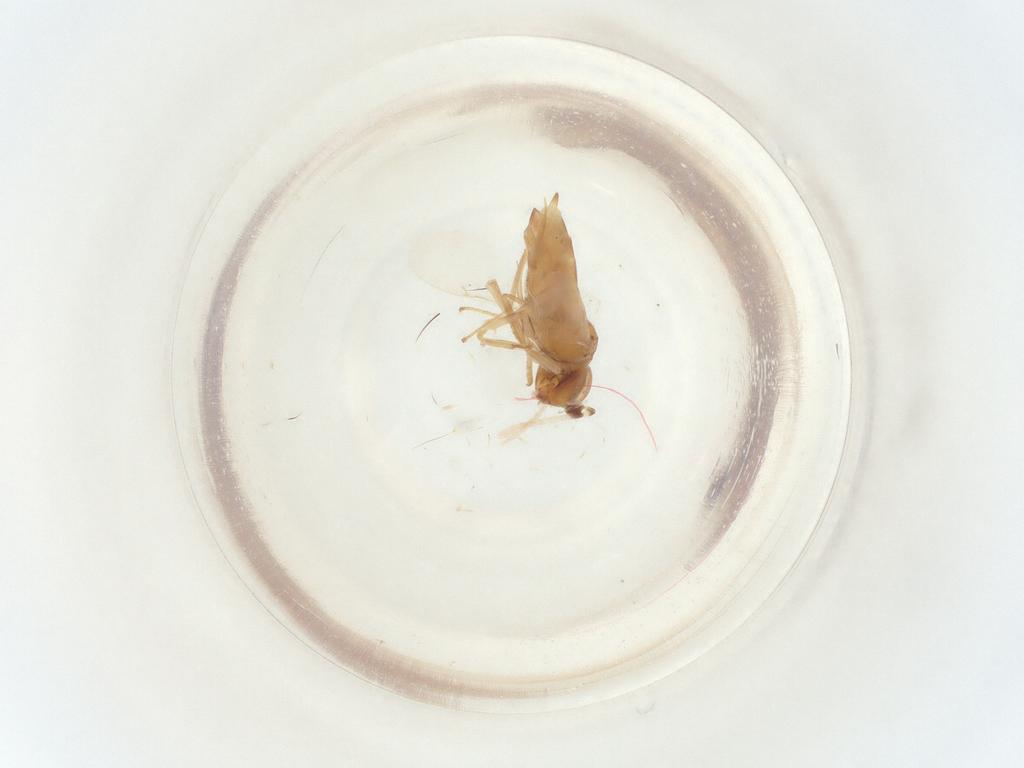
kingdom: Animalia
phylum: Arthropoda
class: Insecta
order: Diptera
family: Chironomidae
